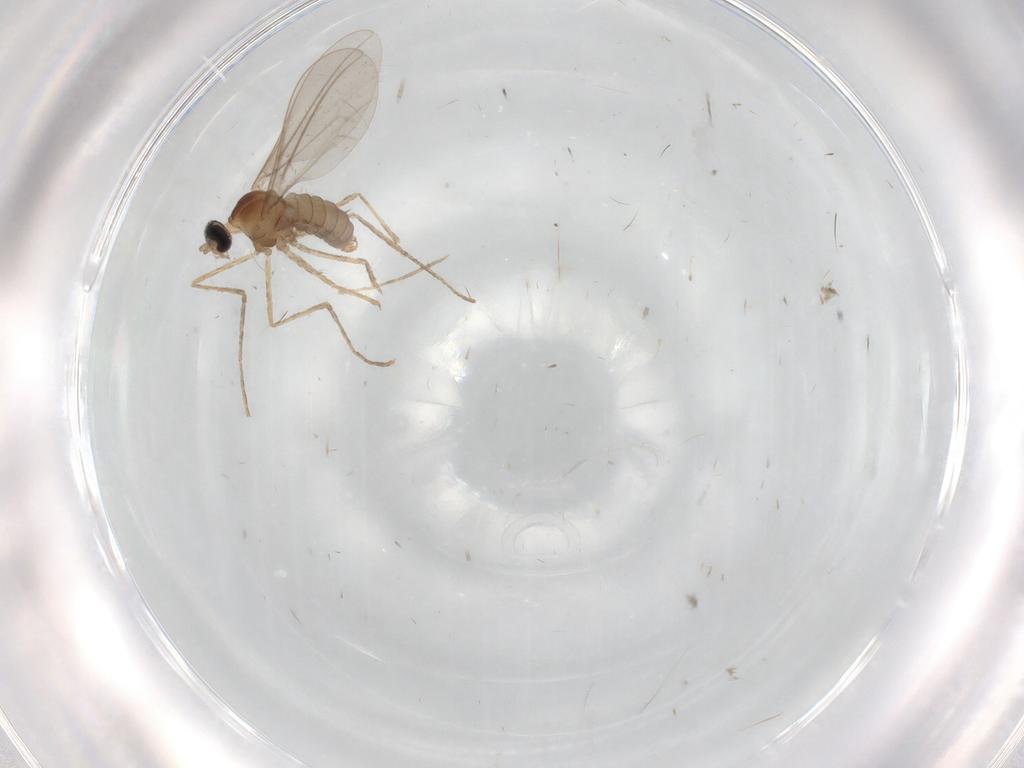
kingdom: Animalia
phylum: Arthropoda
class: Insecta
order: Diptera
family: Cecidomyiidae
